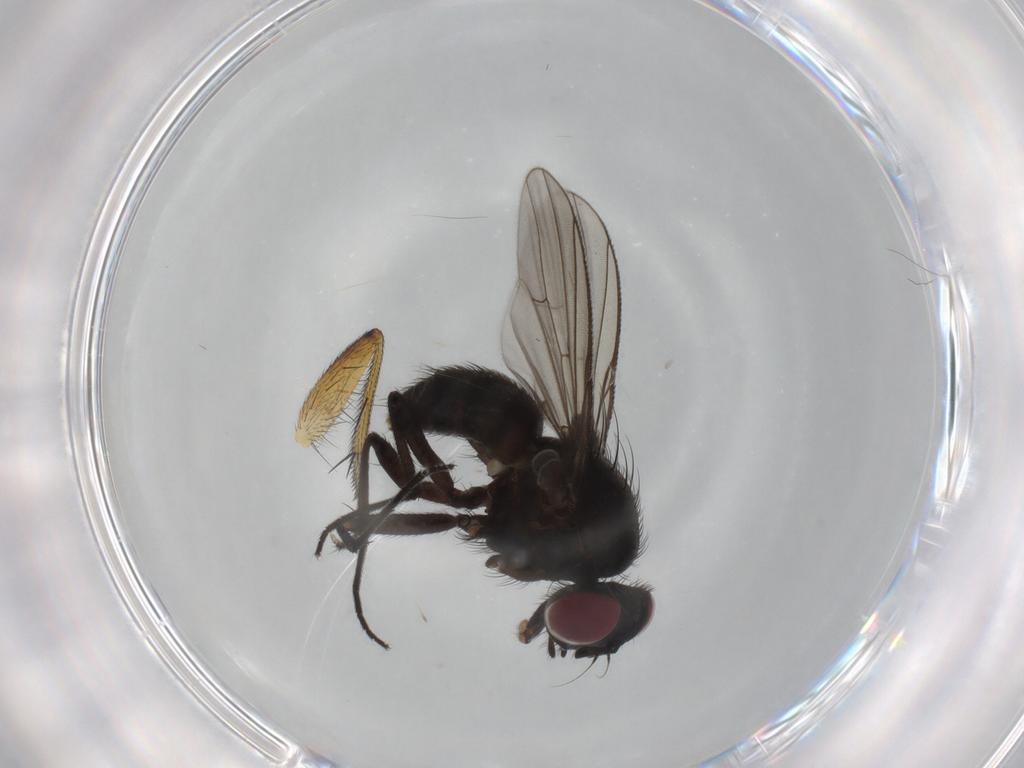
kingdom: Animalia
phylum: Arthropoda
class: Insecta
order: Diptera
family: Muscidae
